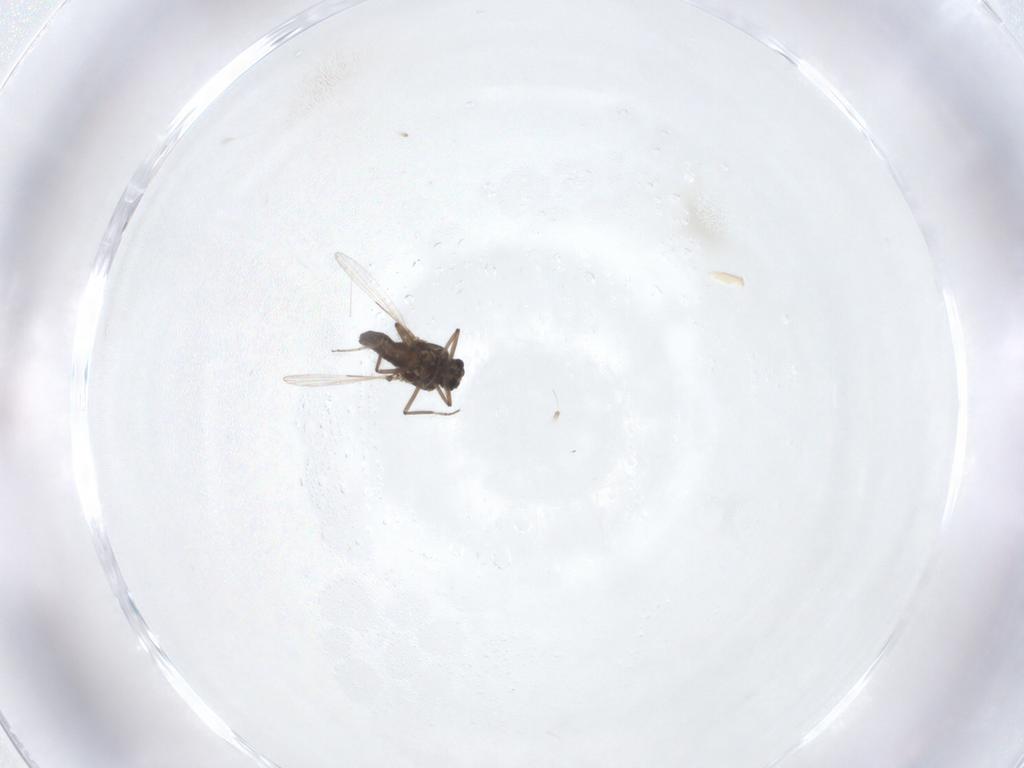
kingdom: Animalia
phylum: Arthropoda
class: Insecta
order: Diptera
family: Ceratopogonidae
